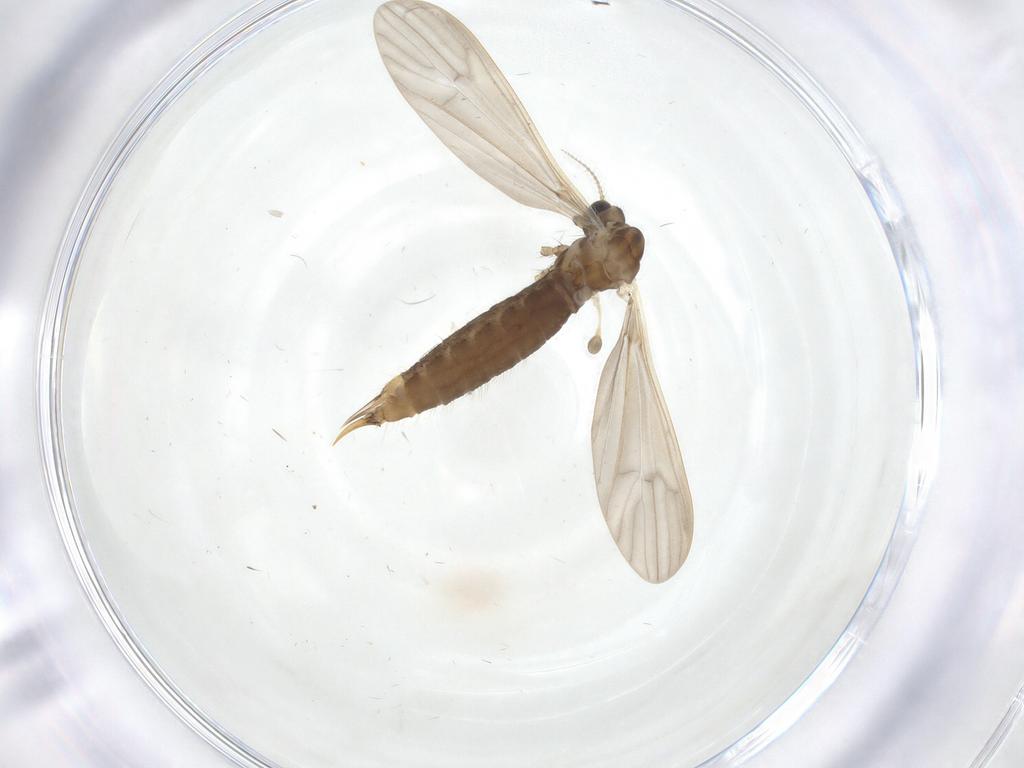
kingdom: Animalia
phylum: Arthropoda
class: Insecta
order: Diptera
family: Limoniidae
